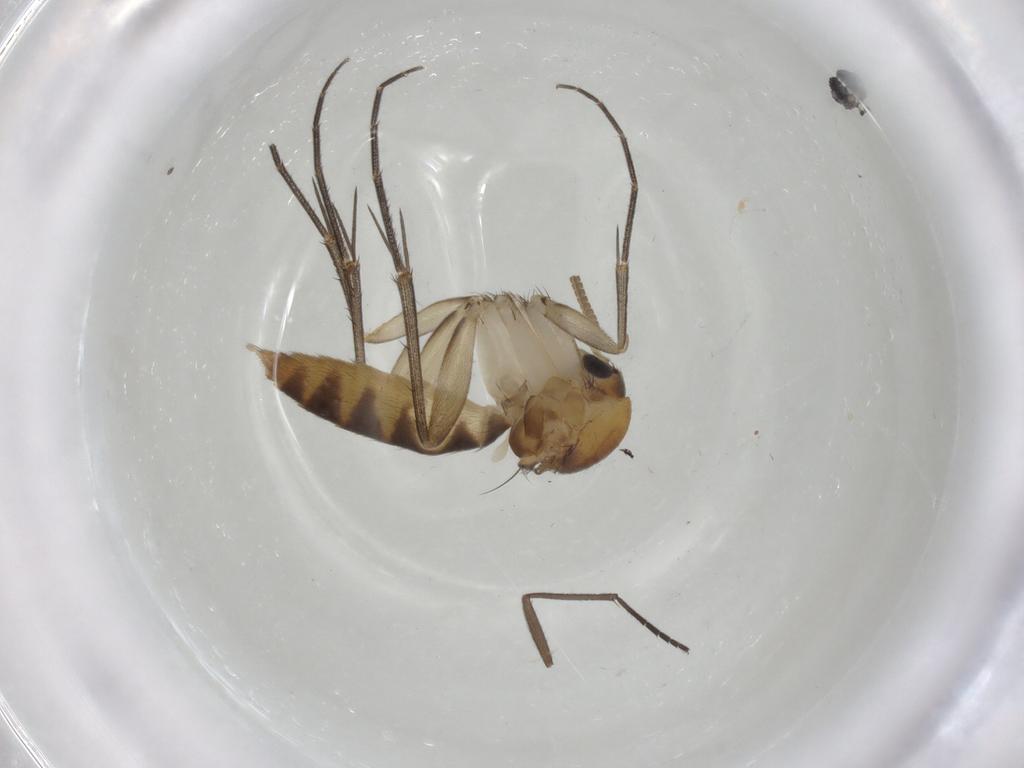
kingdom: Animalia
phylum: Arthropoda
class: Insecta
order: Diptera
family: Mycetophilidae
